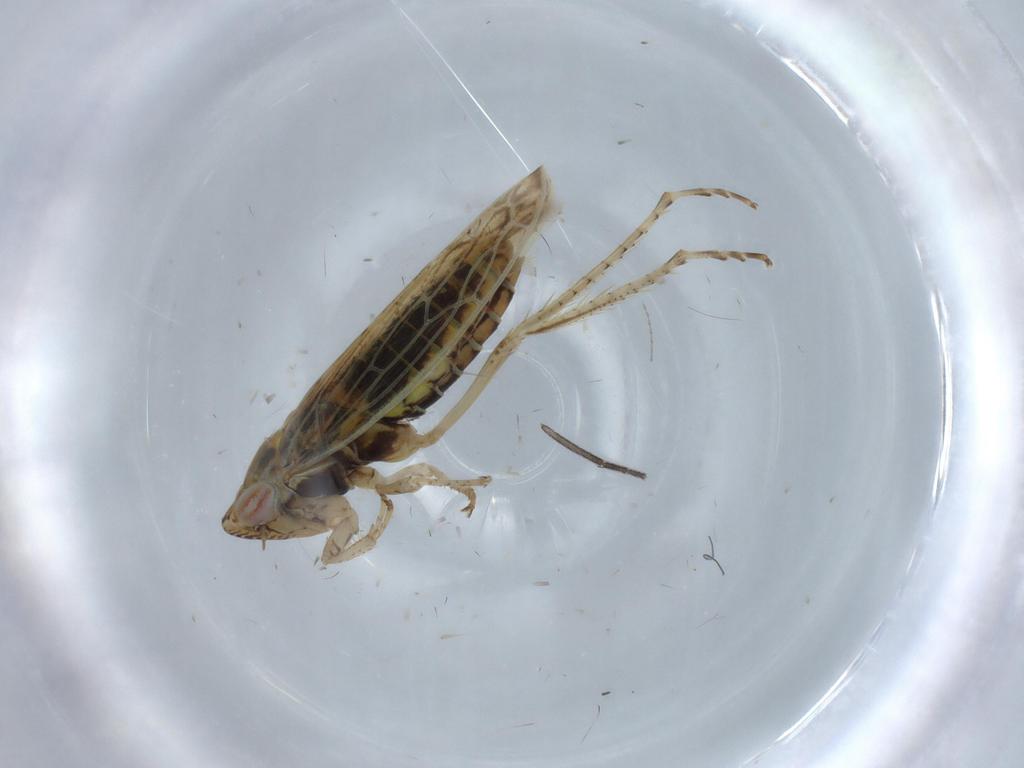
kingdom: Animalia
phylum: Arthropoda
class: Insecta
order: Hemiptera
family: Cicadellidae
